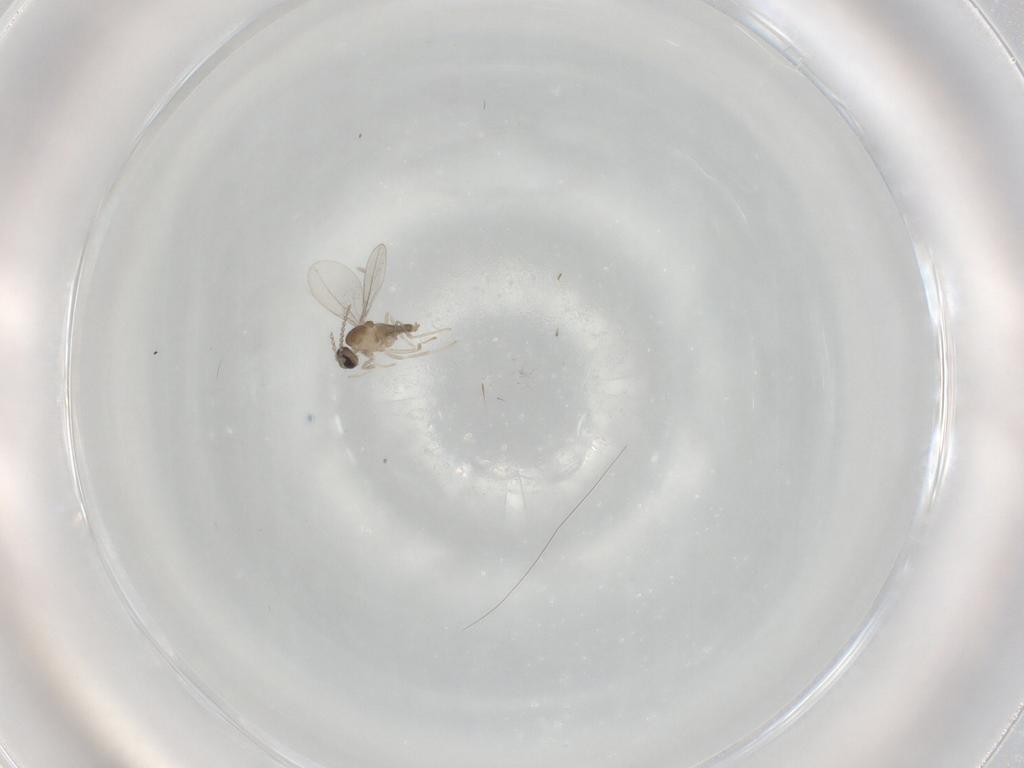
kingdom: Animalia
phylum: Arthropoda
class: Insecta
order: Diptera
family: Cecidomyiidae
